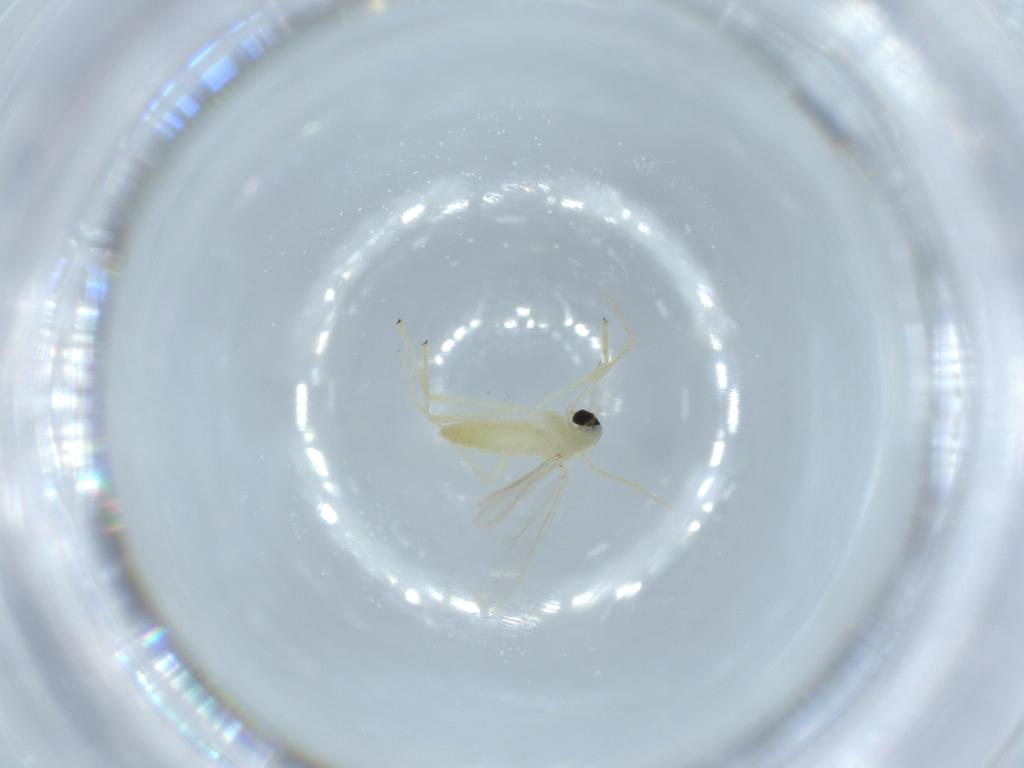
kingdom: Animalia
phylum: Arthropoda
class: Insecta
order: Diptera
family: Chironomidae
